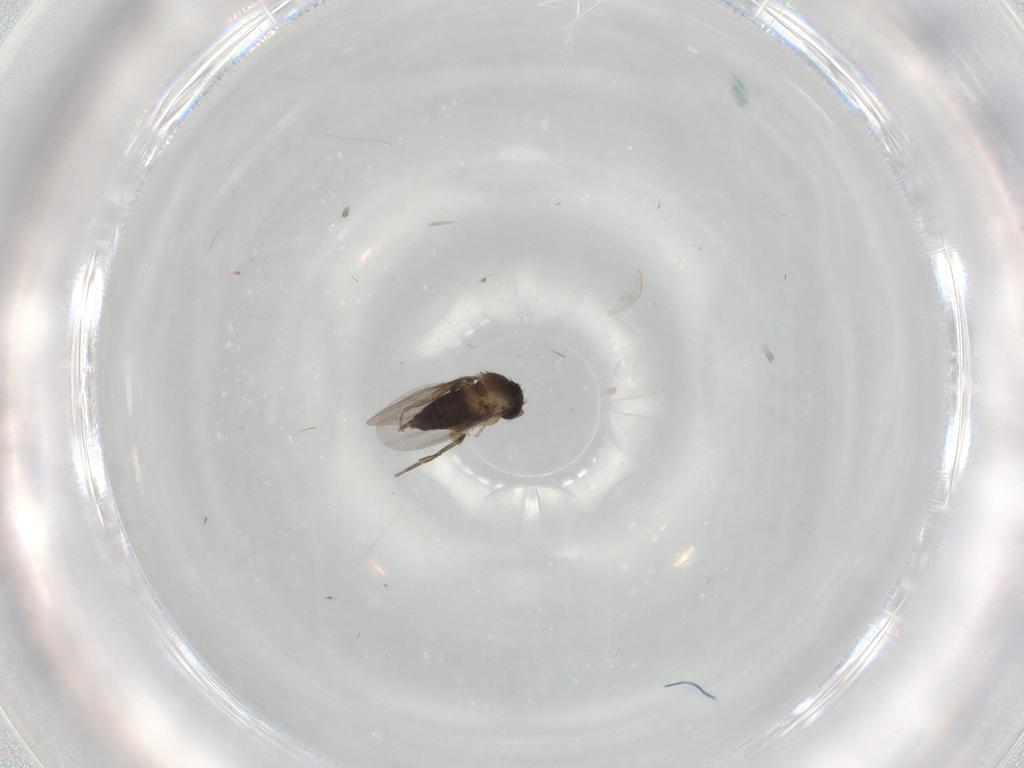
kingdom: Animalia
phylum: Arthropoda
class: Insecta
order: Diptera
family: Phoridae
